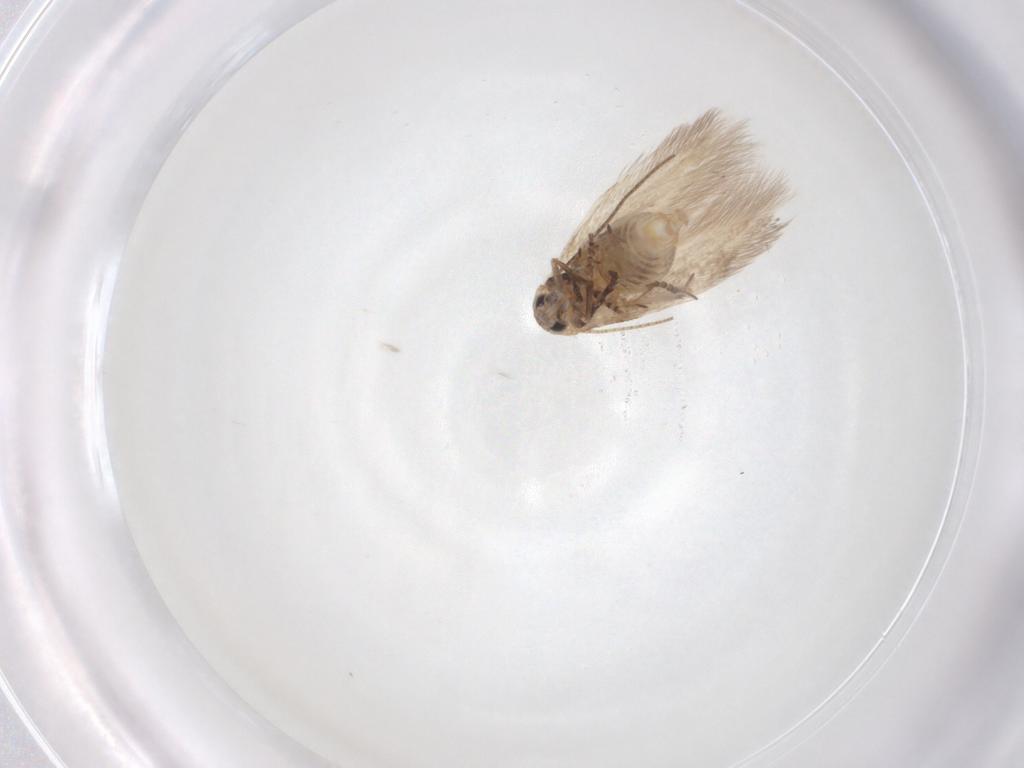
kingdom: Animalia
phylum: Arthropoda
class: Insecta
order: Lepidoptera
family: Bucculatricidae
